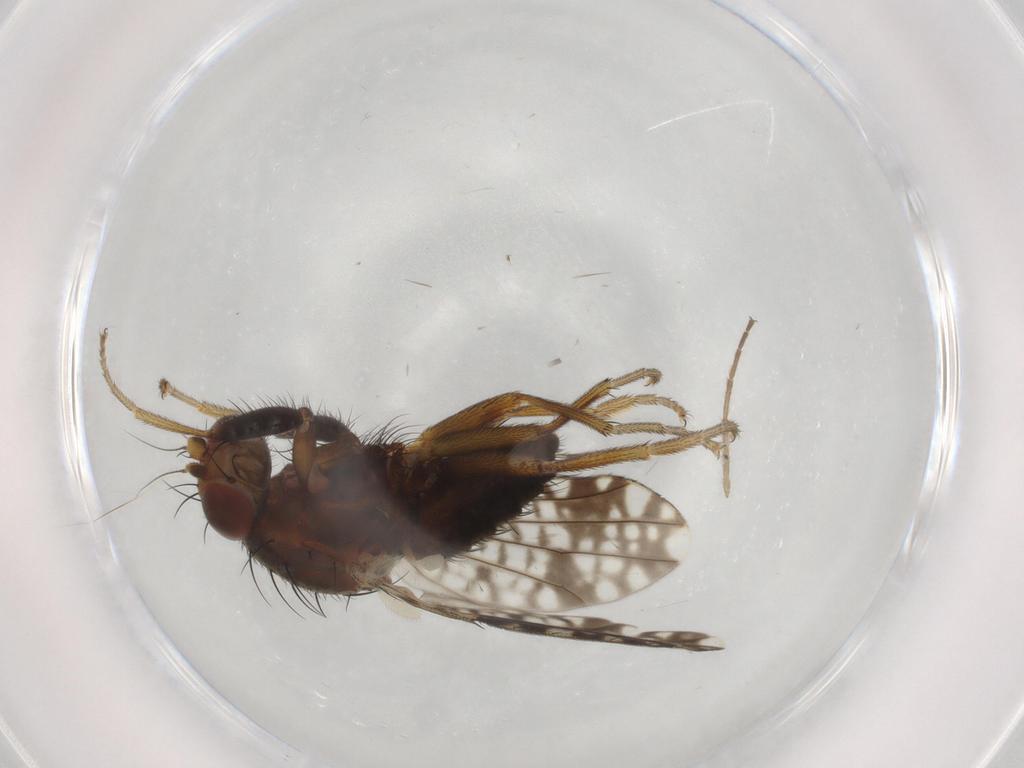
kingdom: Animalia
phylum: Arthropoda
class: Insecta
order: Diptera
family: Tephritidae
